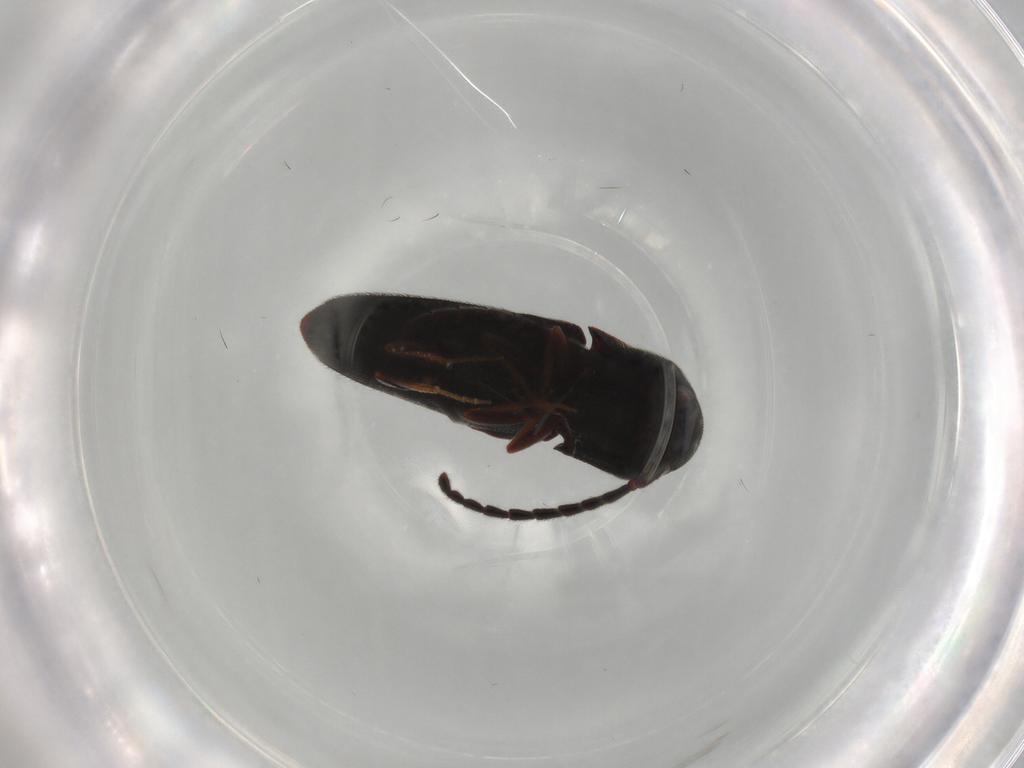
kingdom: Animalia
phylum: Arthropoda
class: Insecta
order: Coleoptera
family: Eucnemidae
